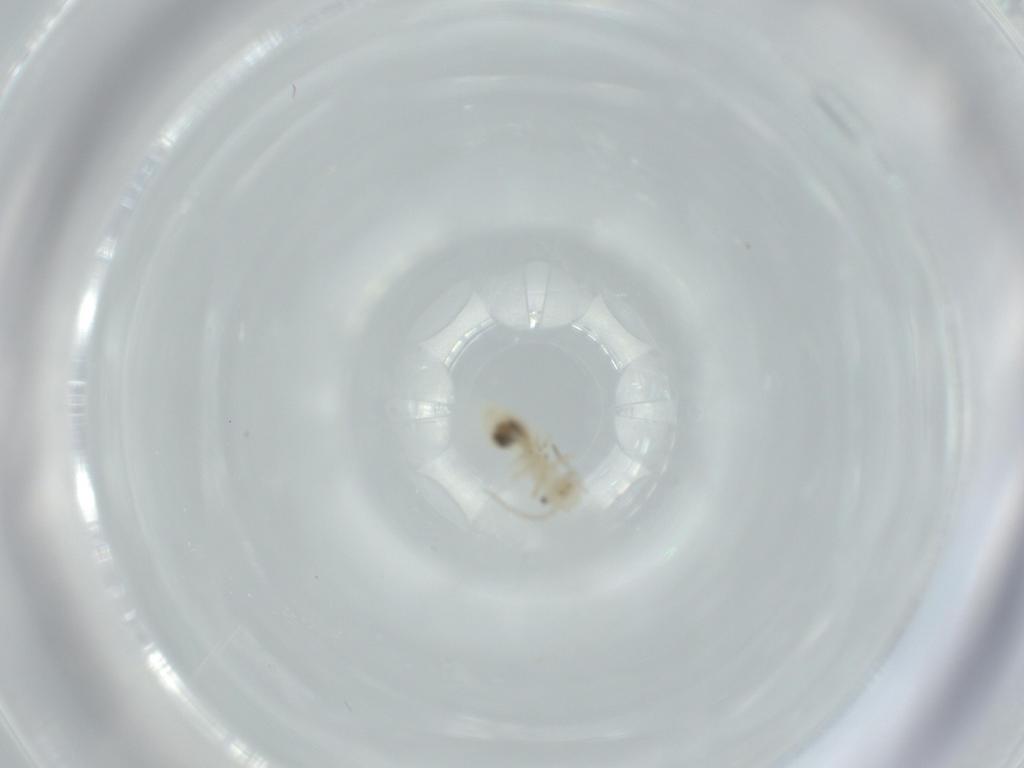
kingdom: Animalia
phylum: Arthropoda
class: Insecta
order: Psocodea
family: Caeciliusidae
